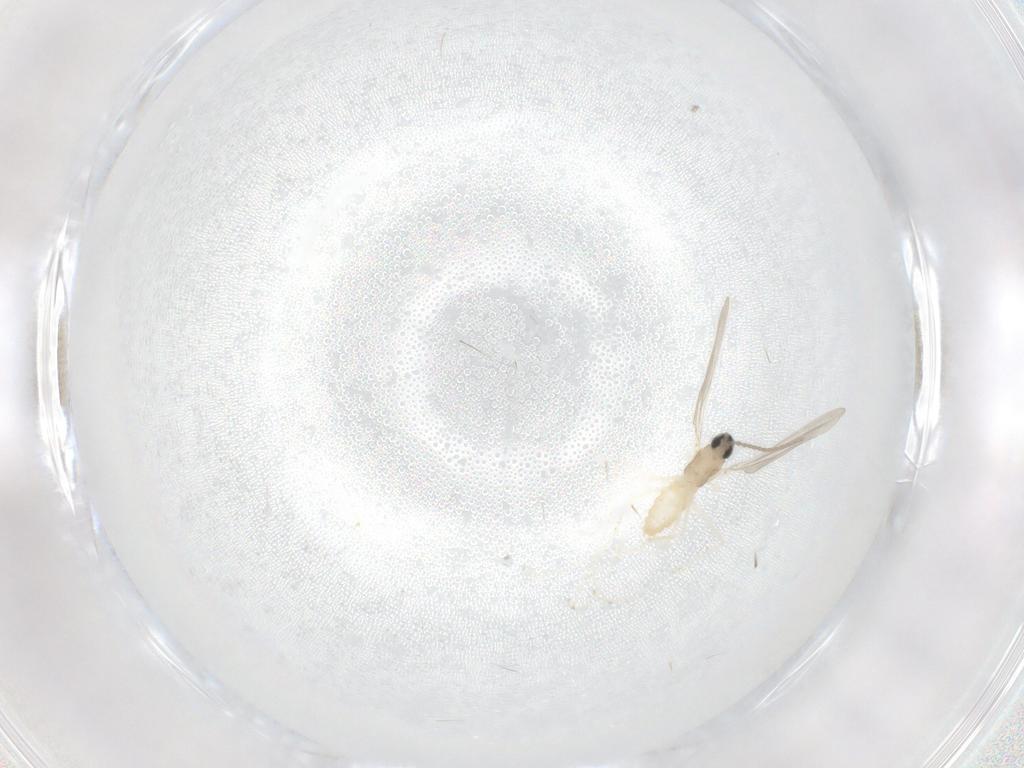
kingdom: Animalia
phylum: Arthropoda
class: Insecta
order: Diptera
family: Cecidomyiidae
